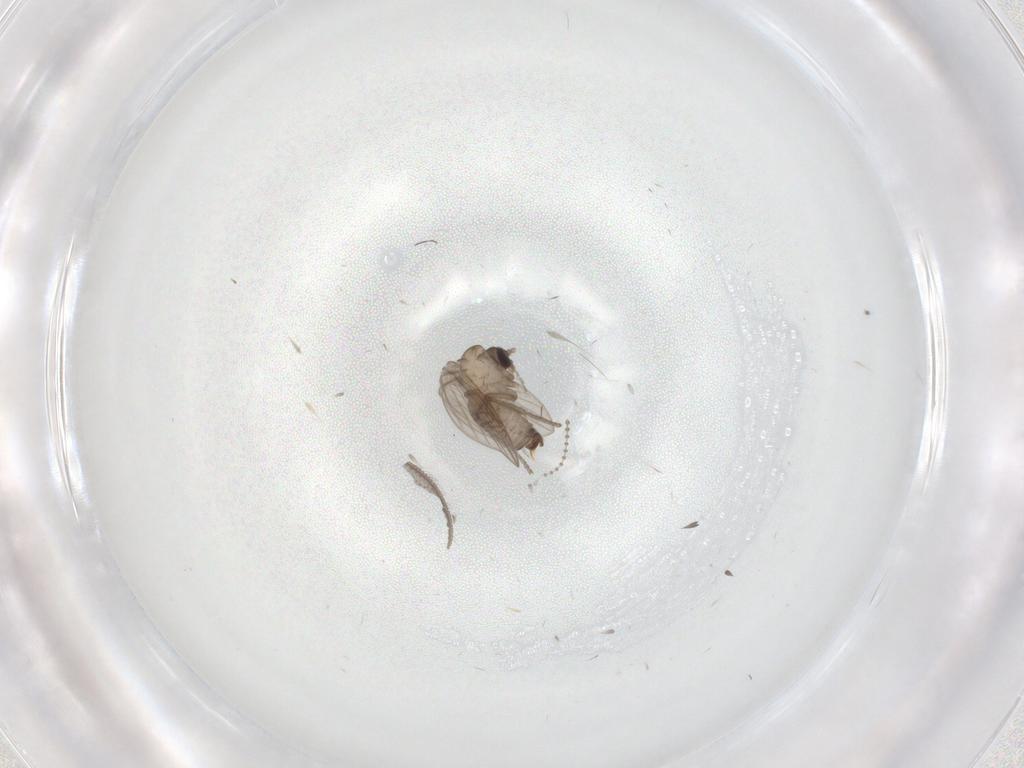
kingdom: Animalia
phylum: Arthropoda
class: Insecta
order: Diptera
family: Psychodidae
